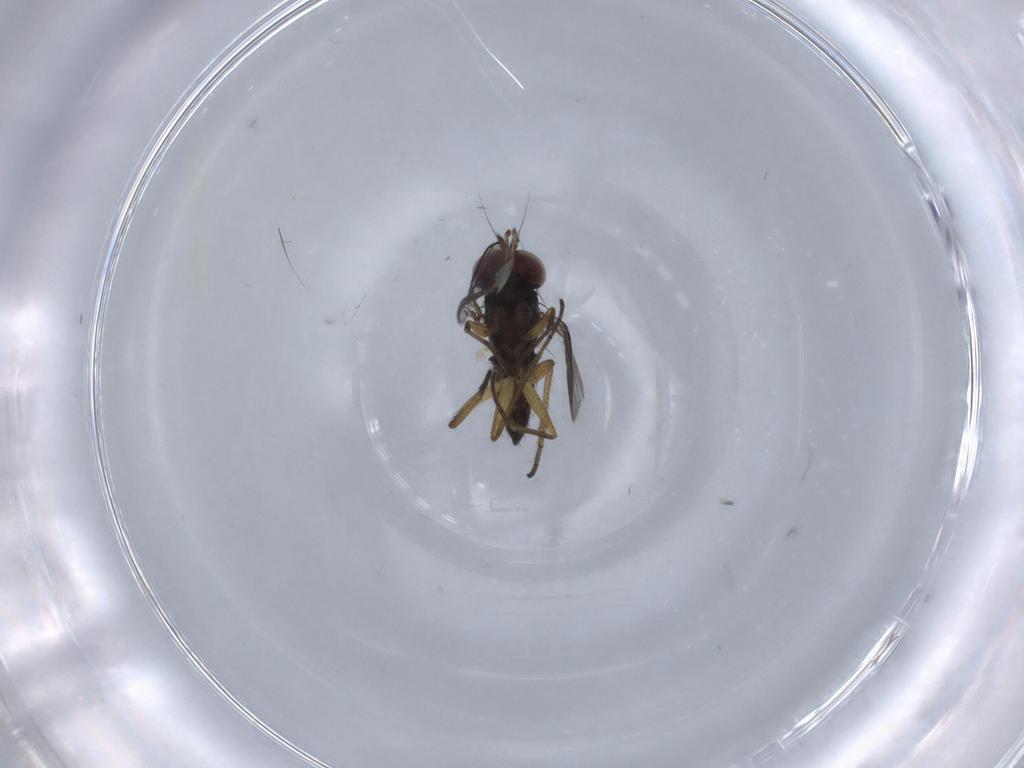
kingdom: Animalia
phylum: Arthropoda
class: Insecta
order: Diptera
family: Dolichopodidae
